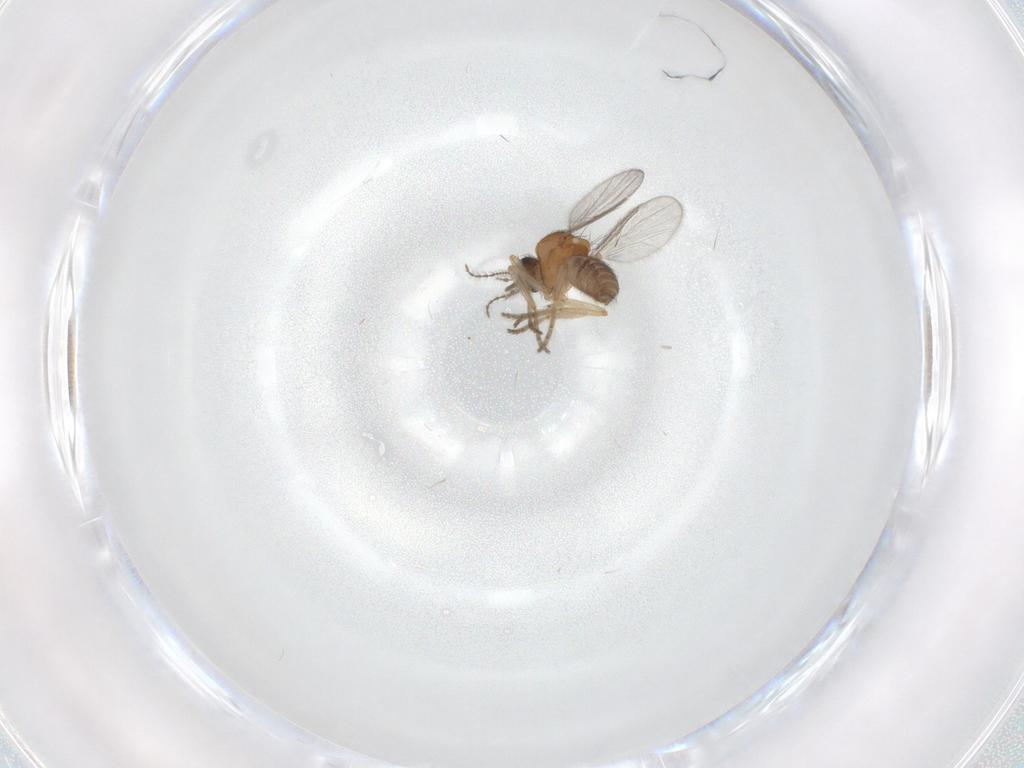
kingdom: Animalia
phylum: Arthropoda
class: Insecta
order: Diptera
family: Ceratopogonidae
